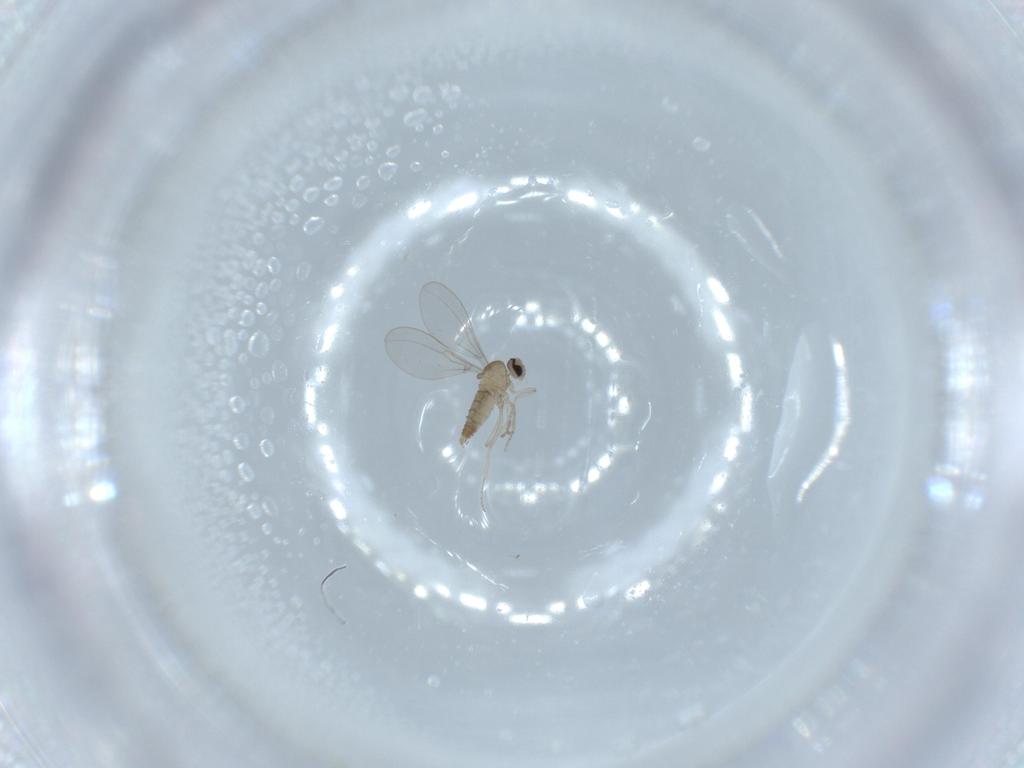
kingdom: Animalia
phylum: Arthropoda
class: Insecta
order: Diptera
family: Cecidomyiidae
